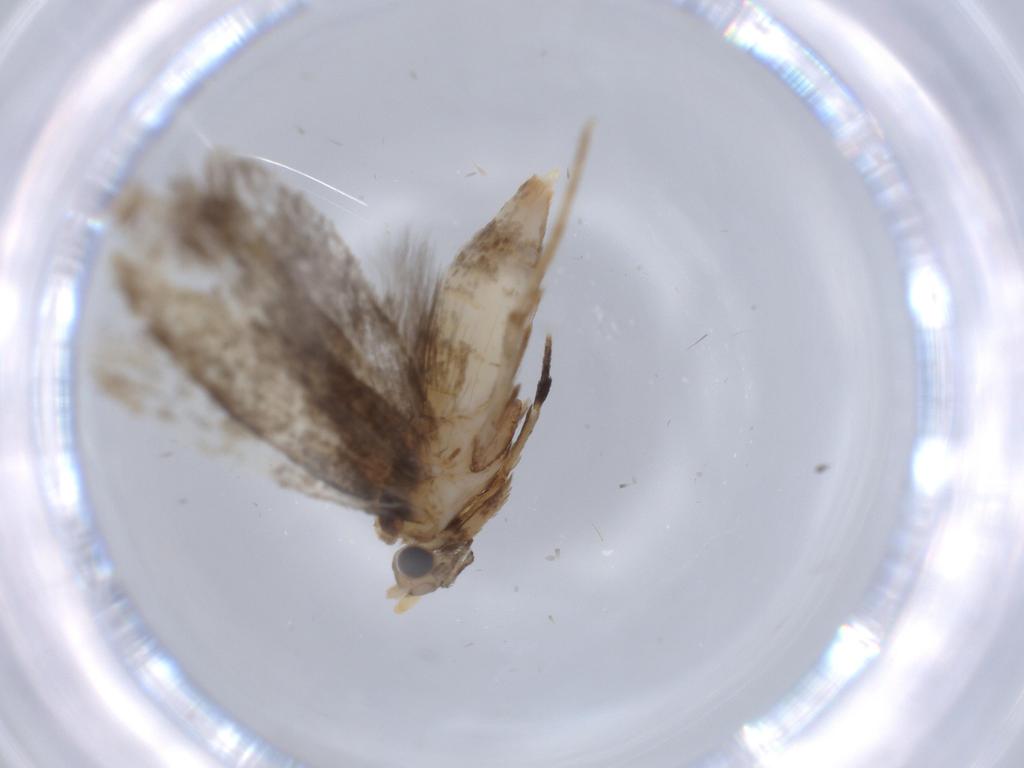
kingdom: Animalia
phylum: Arthropoda
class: Insecta
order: Lepidoptera
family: Tineidae
